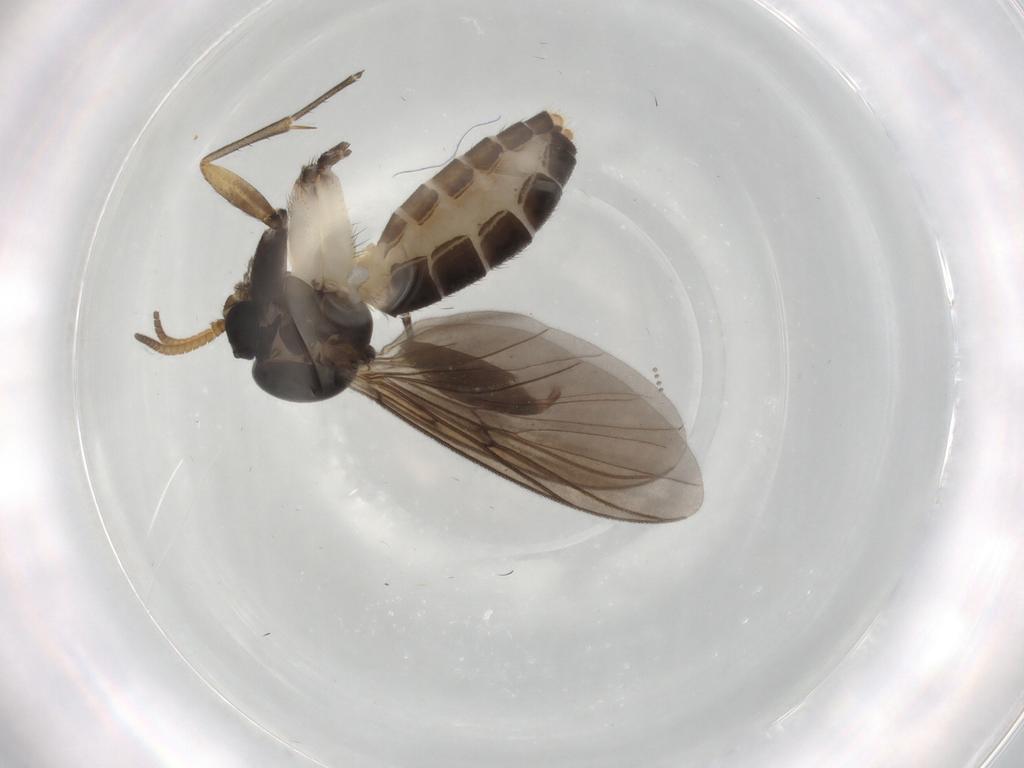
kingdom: Animalia
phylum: Arthropoda
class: Insecta
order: Diptera
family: Mycetophilidae
